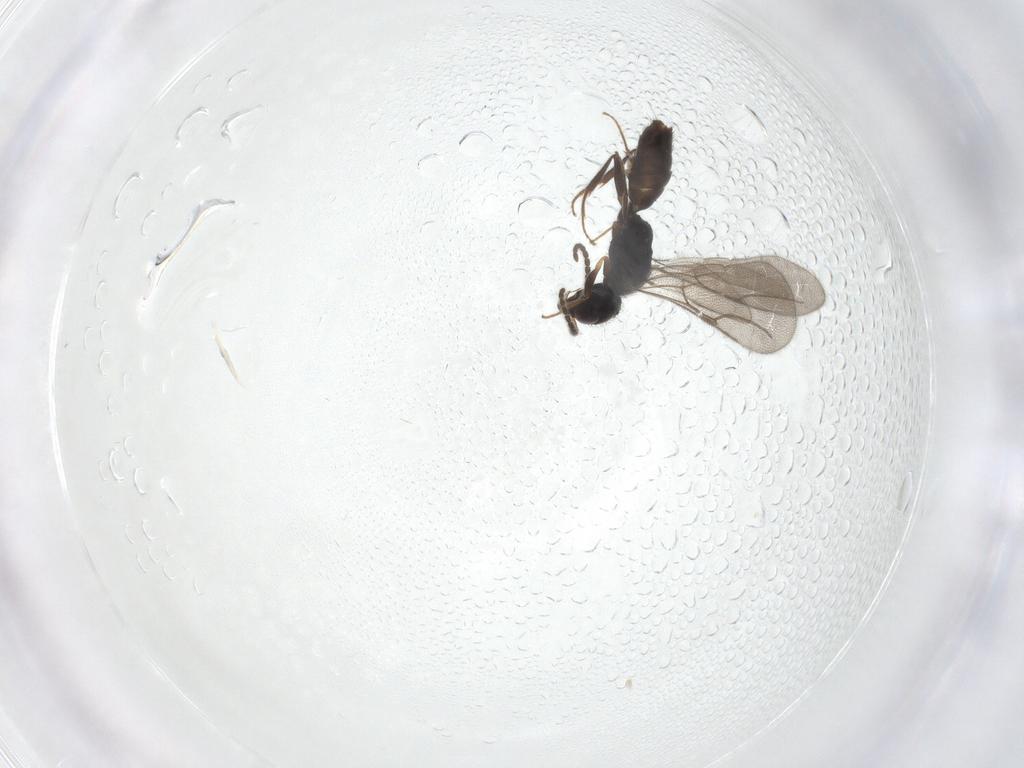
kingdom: Animalia
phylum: Arthropoda
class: Insecta
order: Hymenoptera
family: Bethylidae
